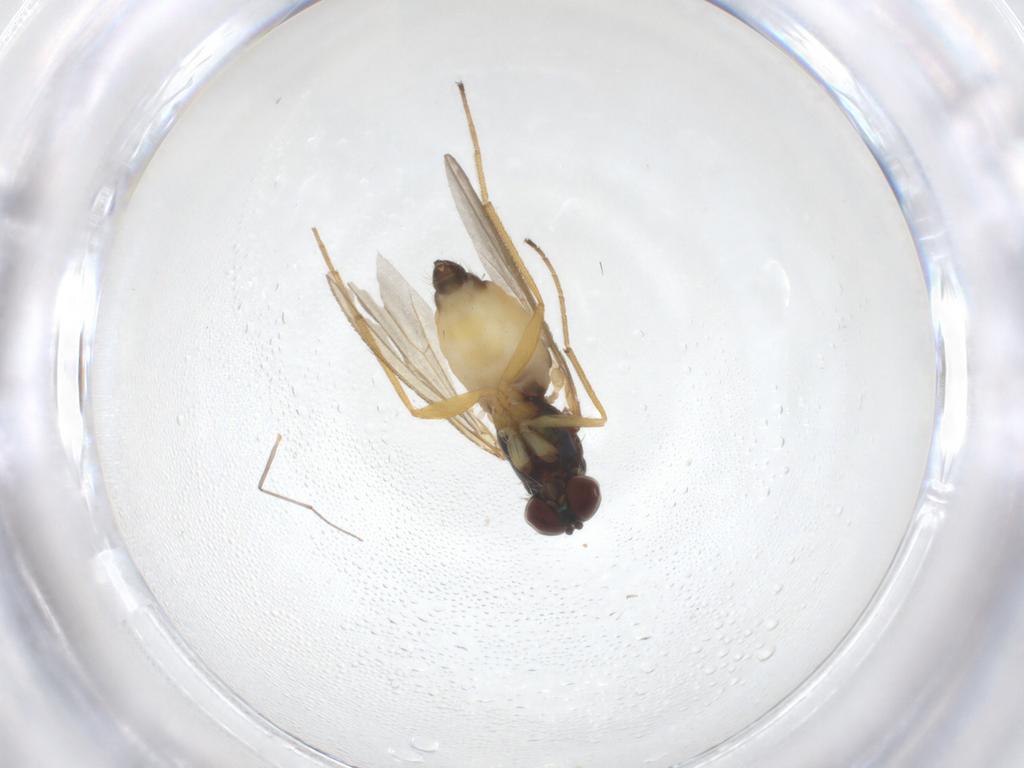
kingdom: Animalia
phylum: Arthropoda
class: Insecta
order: Diptera
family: Dolichopodidae
